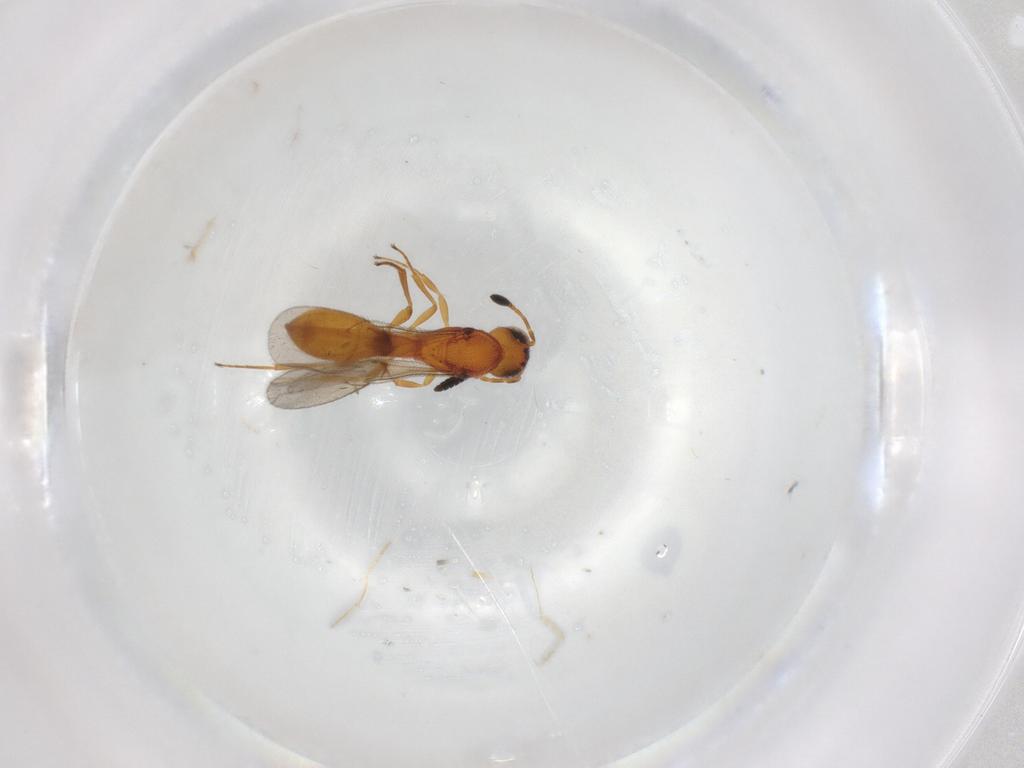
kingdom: Animalia
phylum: Arthropoda
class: Insecta
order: Hymenoptera
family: Scelionidae
